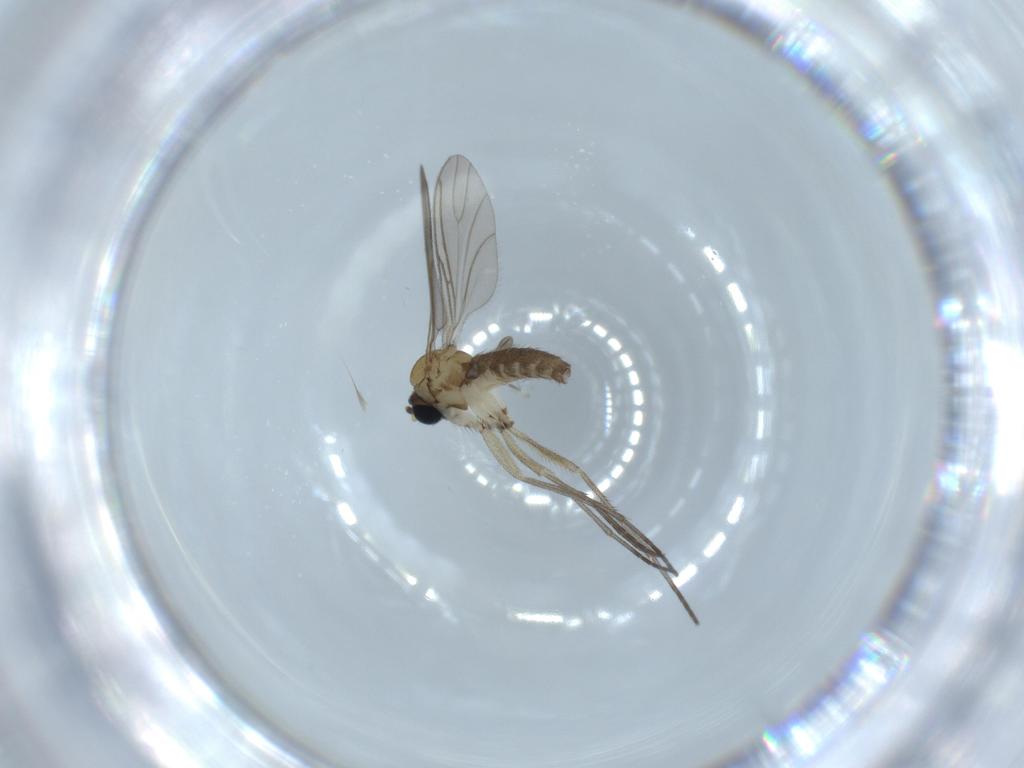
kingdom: Animalia
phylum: Arthropoda
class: Insecta
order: Diptera
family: Sciaridae
